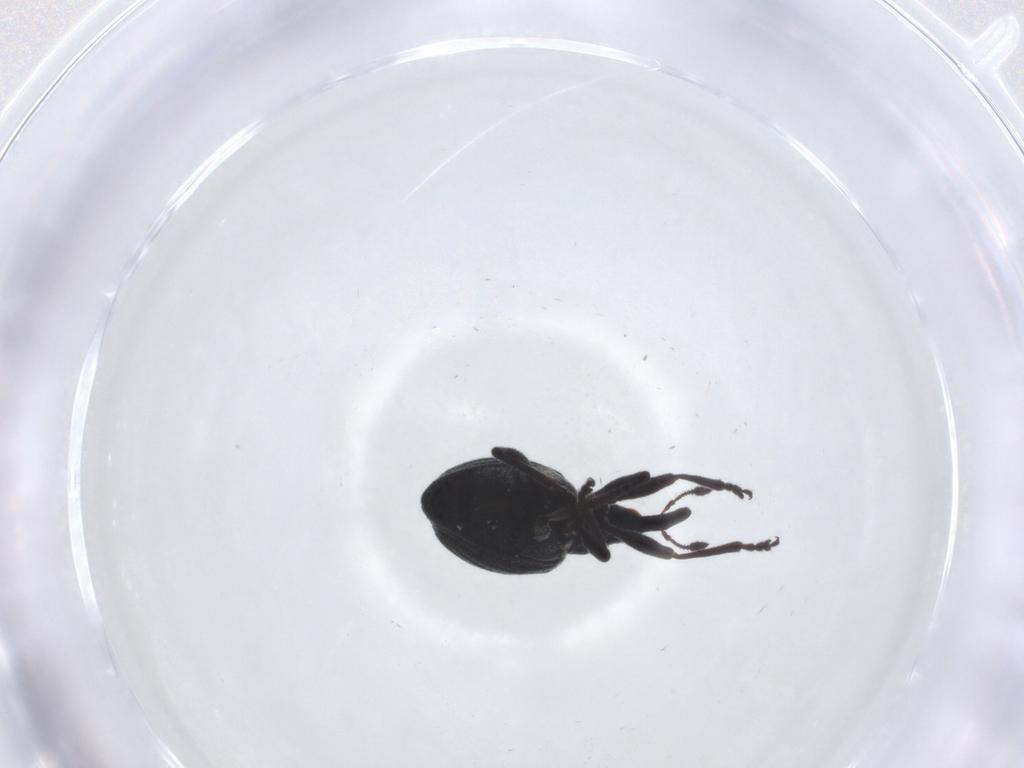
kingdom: Animalia
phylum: Arthropoda
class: Insecta
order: Coleoptera
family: Brentidae
